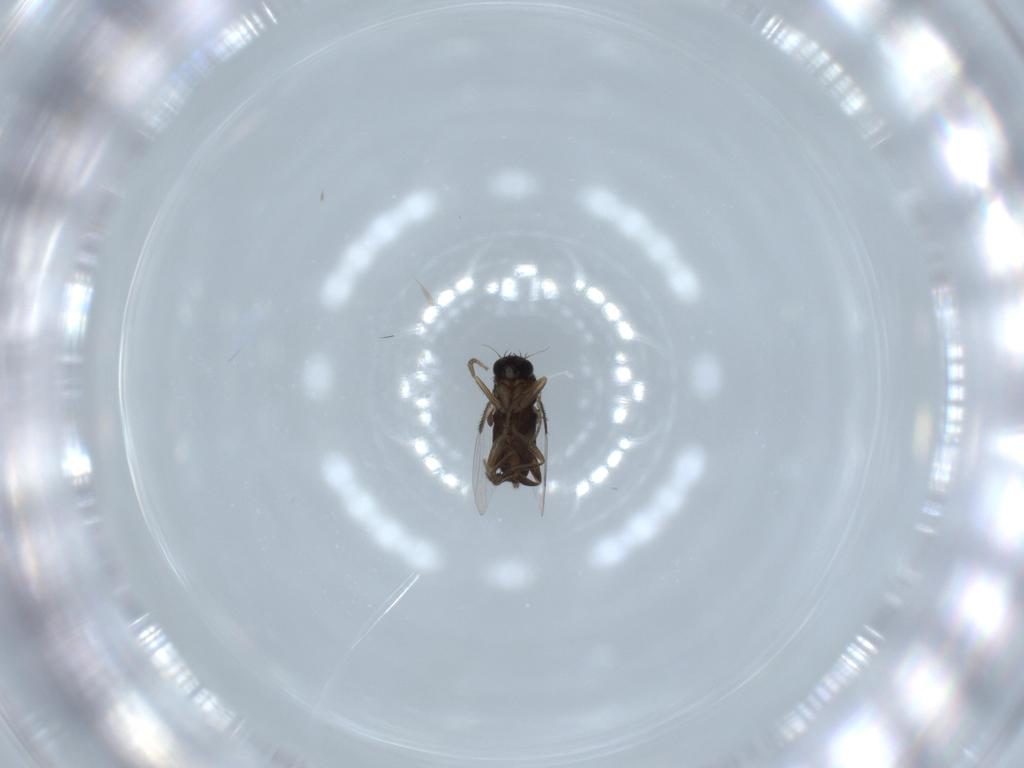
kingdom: Animalia
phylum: Arthropoda
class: Insecta
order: Diptera
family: Phoridae
